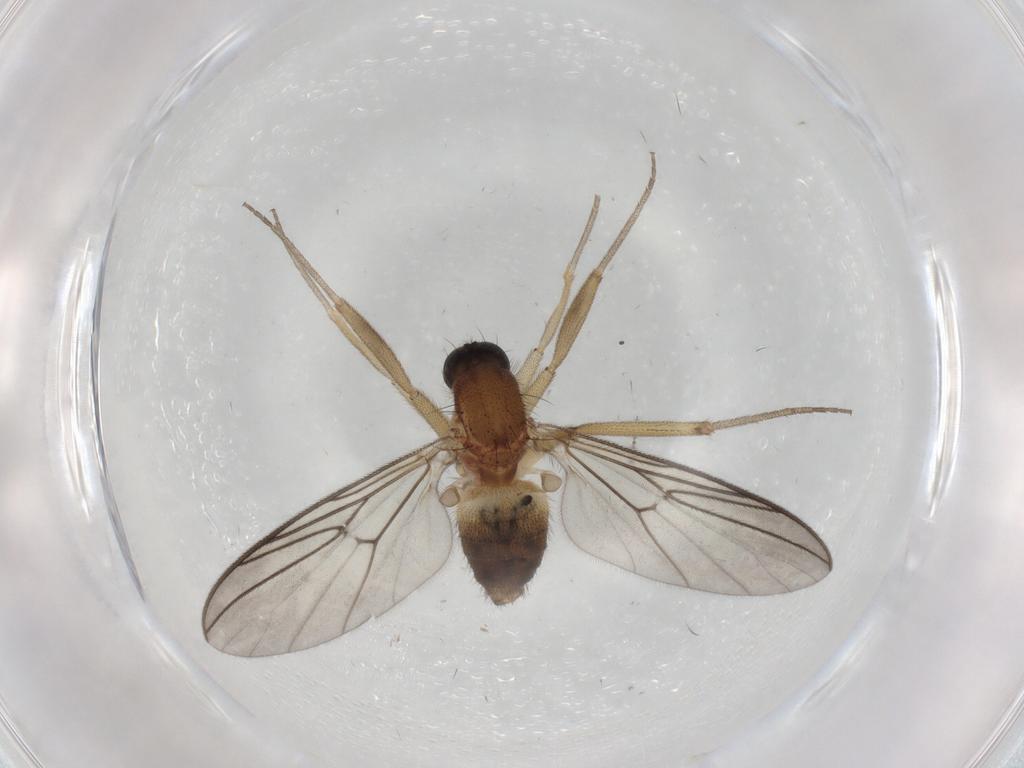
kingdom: Animalia
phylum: Arthropoda
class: Insecta
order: Diptera
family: Anisopodidae
